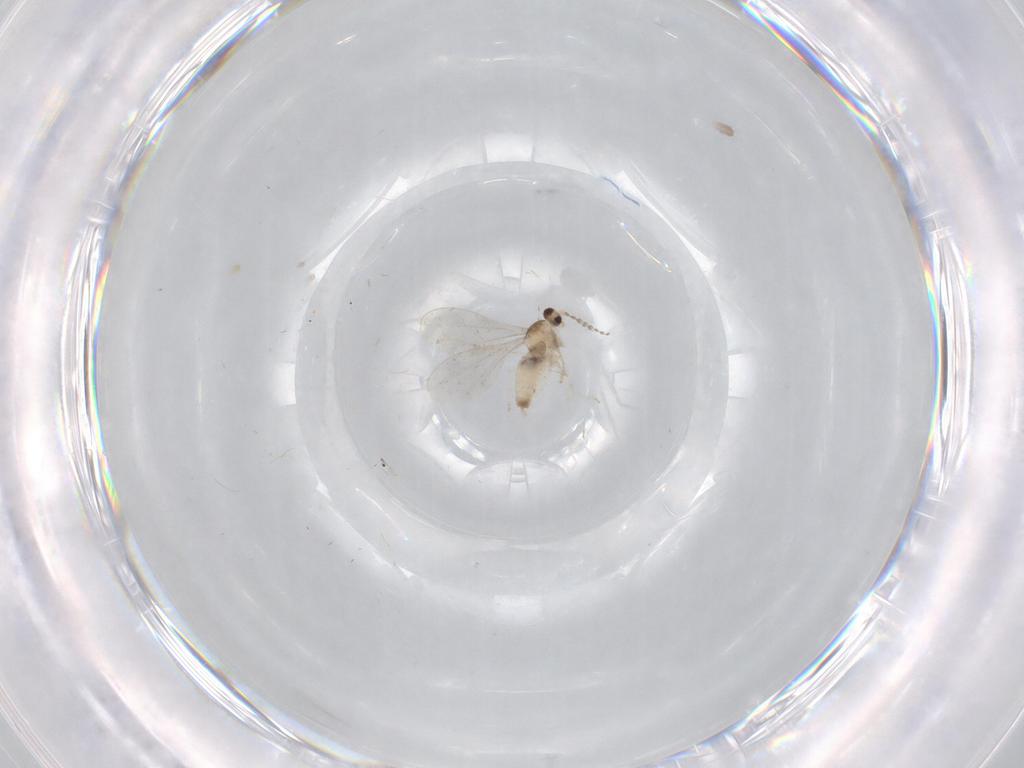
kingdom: Animalia
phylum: Arthropoda
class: Insecta
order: Diptera
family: Cecidomyiidae
